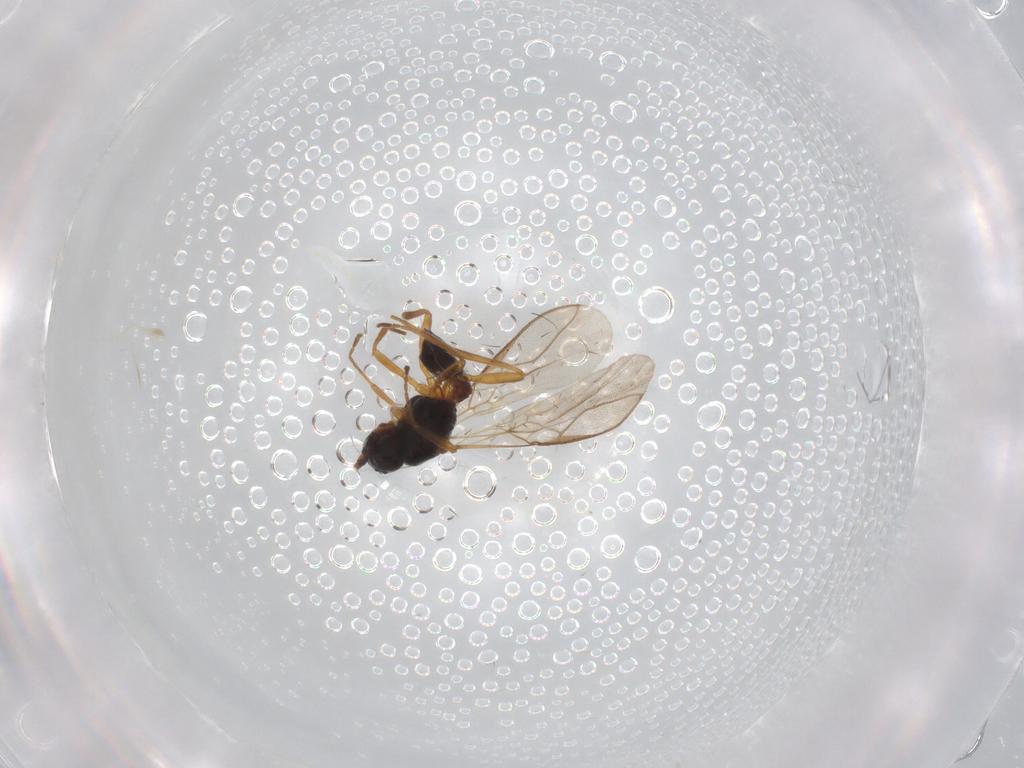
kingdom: Animalia
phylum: Arthropoda
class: Insecta
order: Hymenoptera
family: Braconidae
